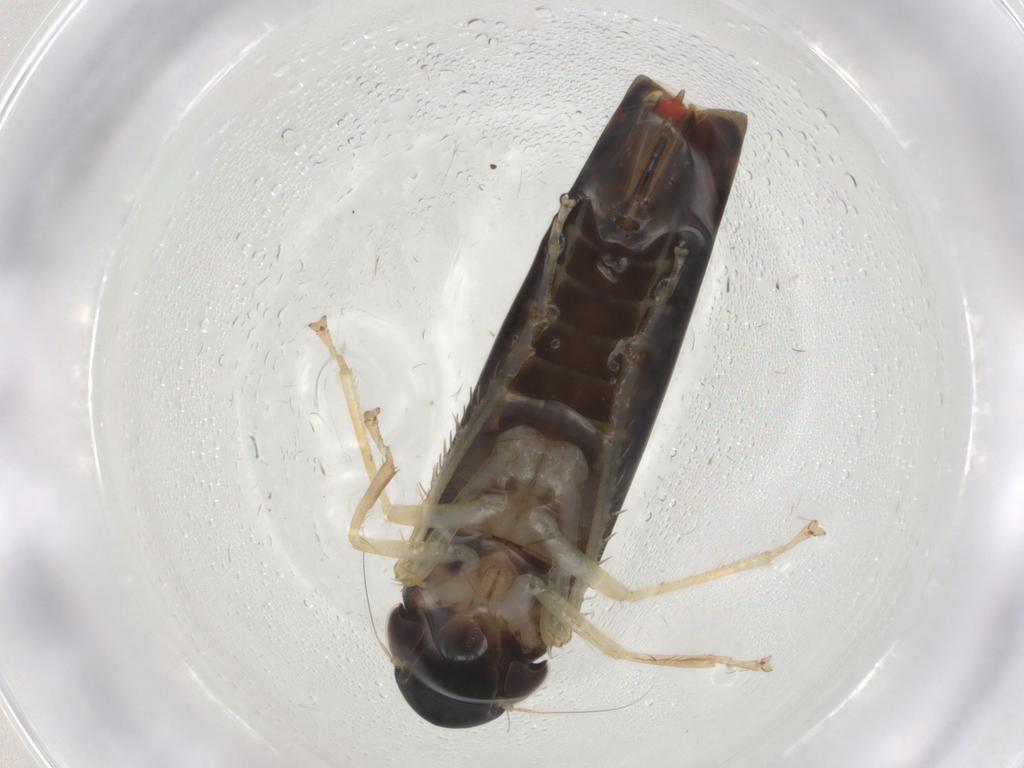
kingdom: Animalia
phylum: Arthropoda
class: Insecta
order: Hemiptera
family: Cicadellidae
